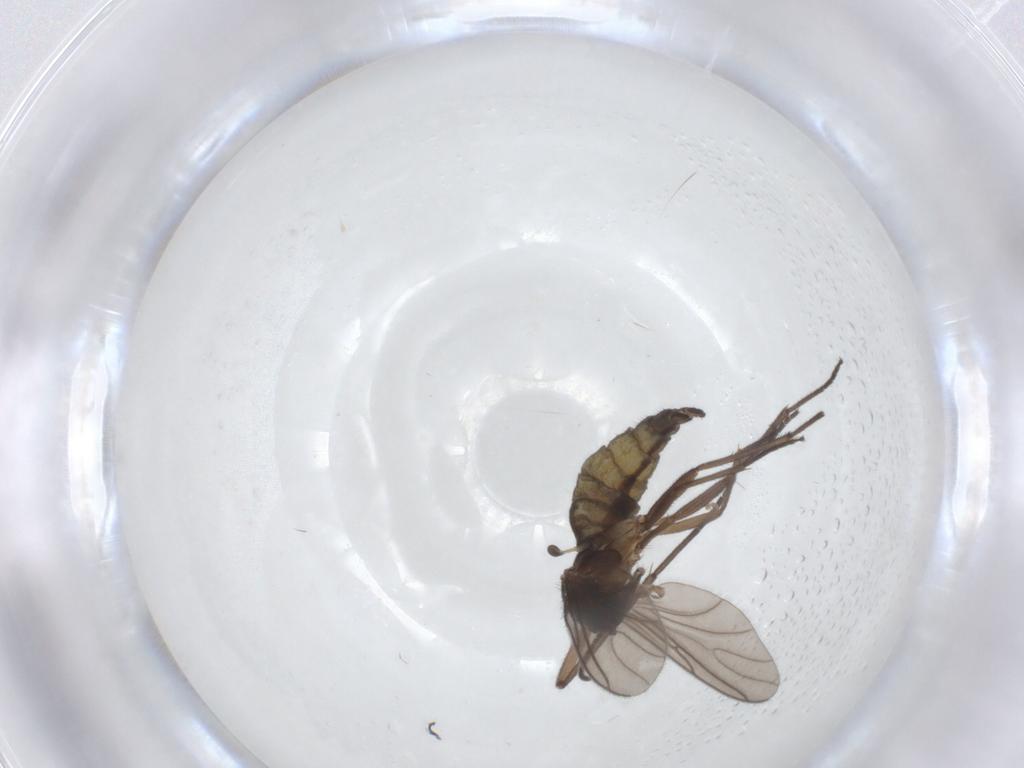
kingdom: Animalia
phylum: Arthropoda
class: Insecta
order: Diptera
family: Sciaridae
